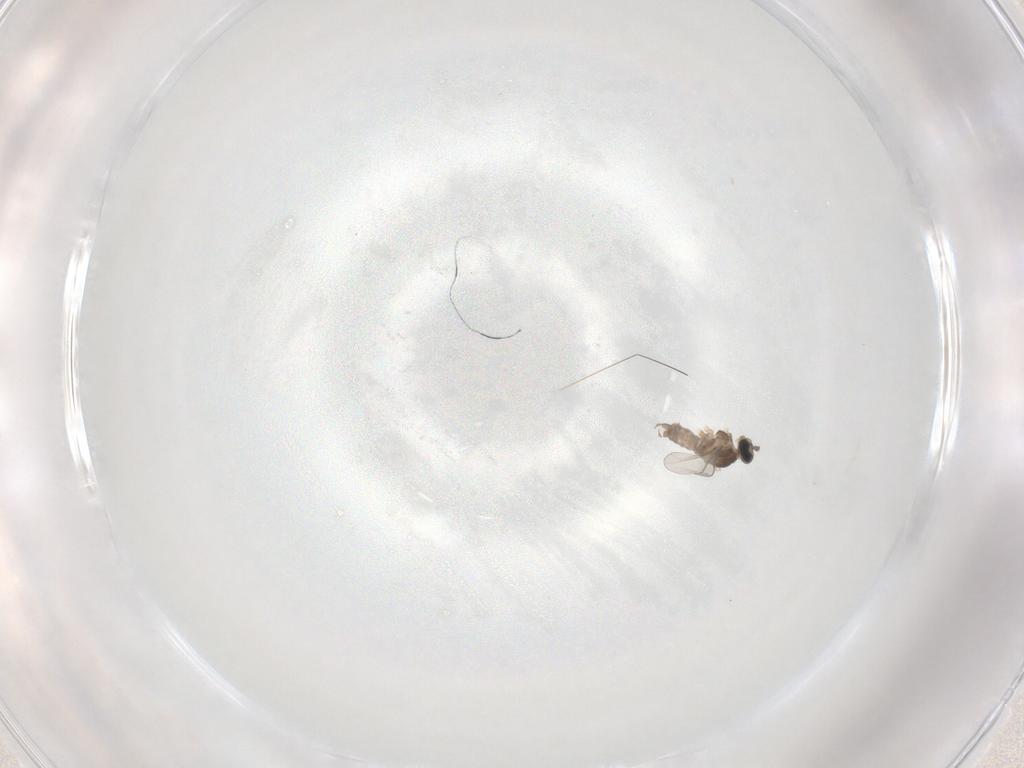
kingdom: Animalia
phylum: Arthropoda
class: Insecta
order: Diptera
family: Cecidomyiidae
